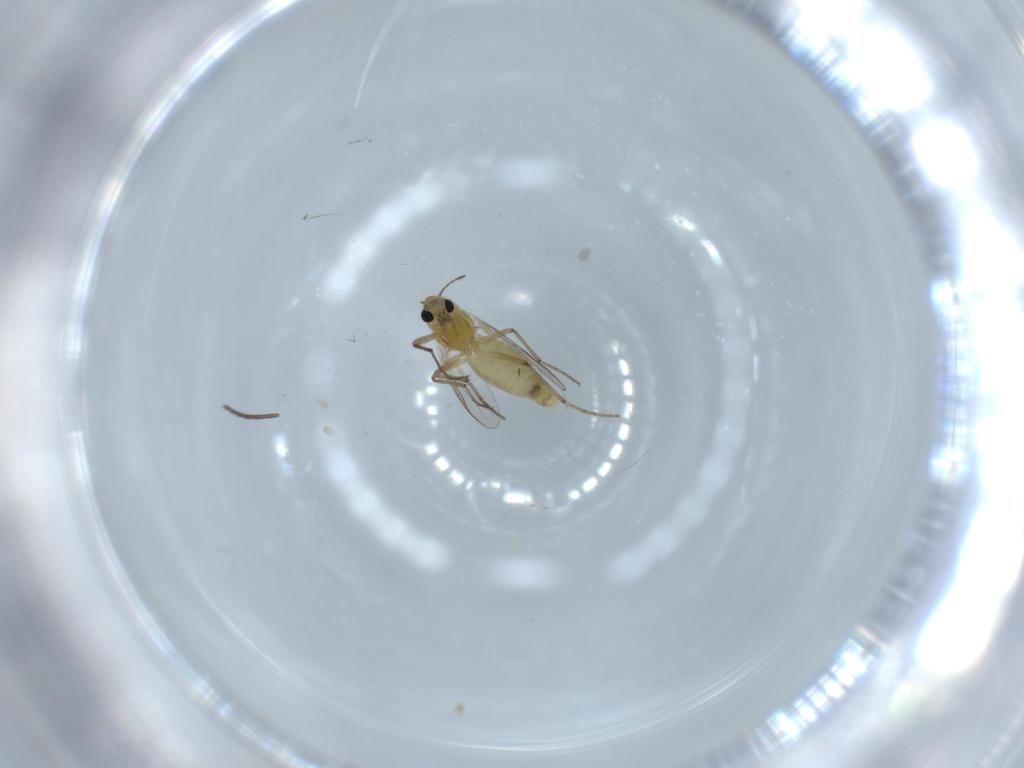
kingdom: Animalia
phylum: Arthropoda
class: Insecta
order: Diptera
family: Chironomidae
